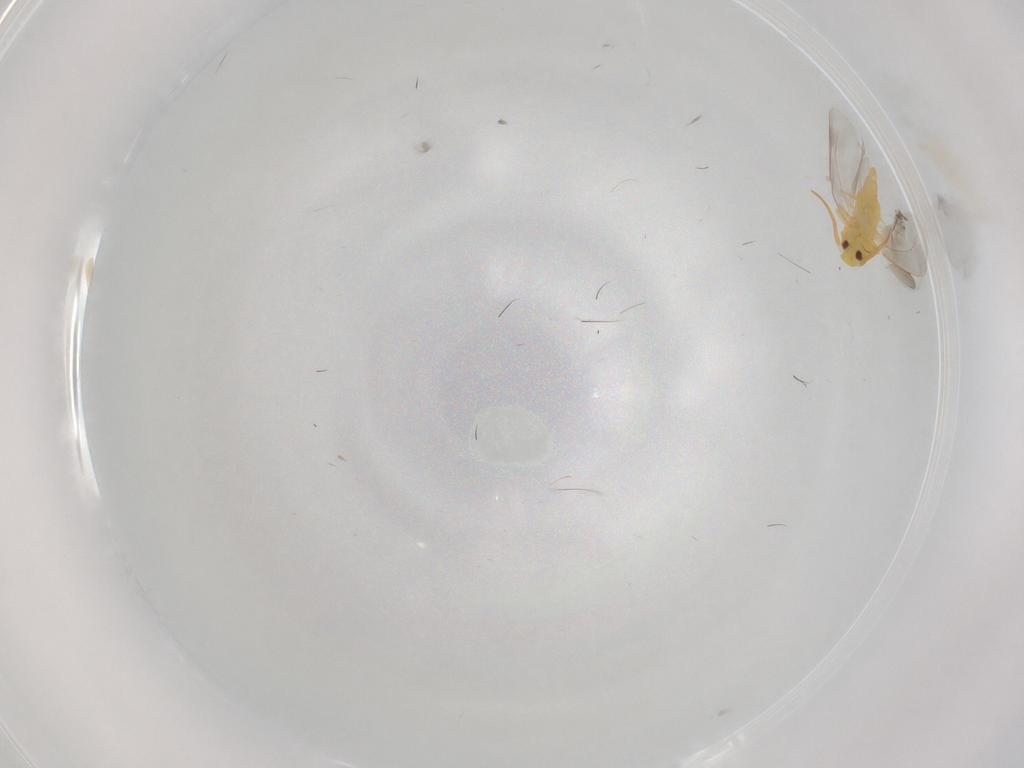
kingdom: Animalia
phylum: Arthropoda
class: Insecta
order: Hemiptera
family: Aleyrodidae
